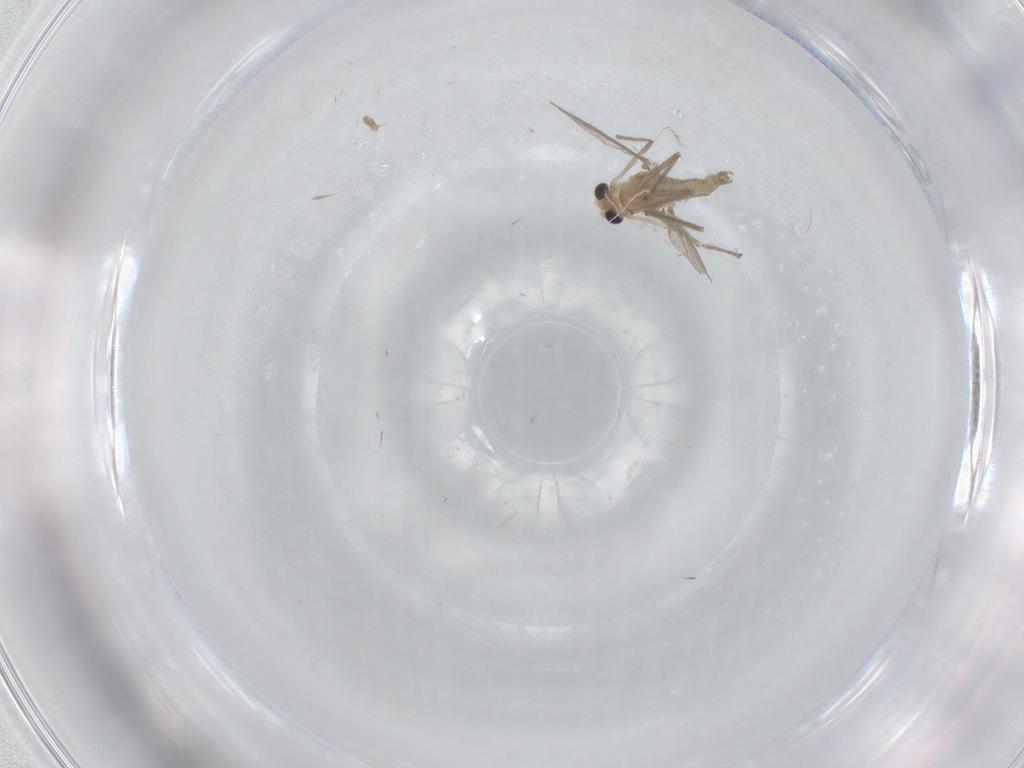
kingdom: Animalia
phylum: Arthropoda
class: Insecta
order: Diptera
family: Chironomidae
